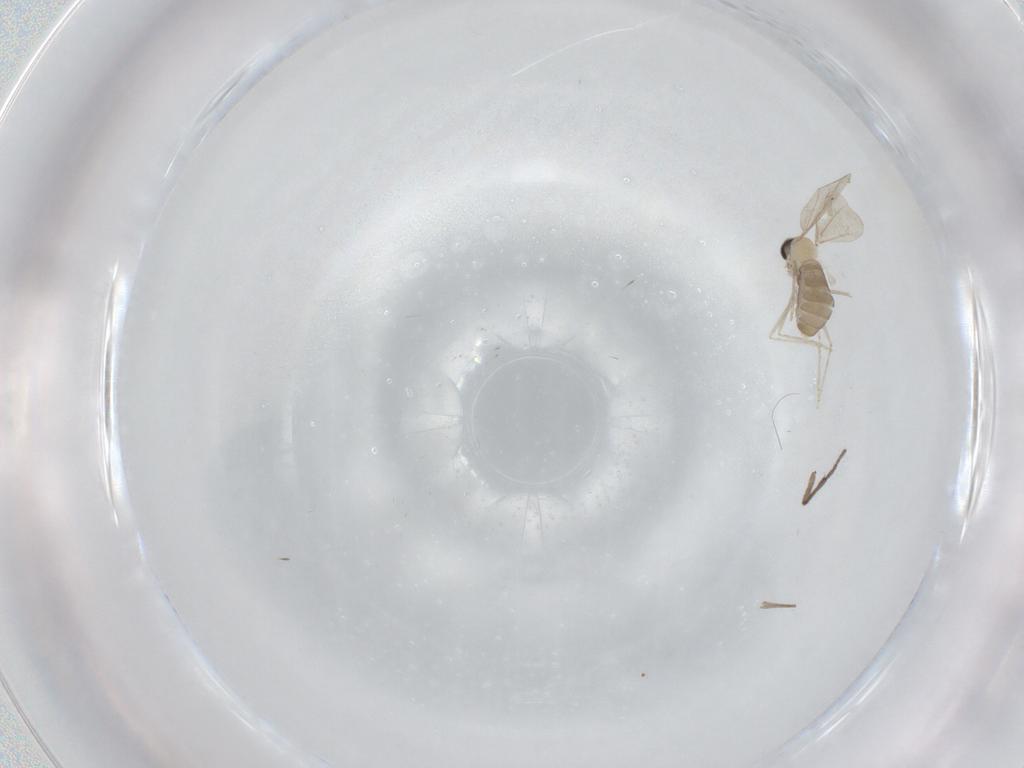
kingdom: Animalia
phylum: Arthropoda
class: Insecta
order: Diptera
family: Cecidomyiidae
